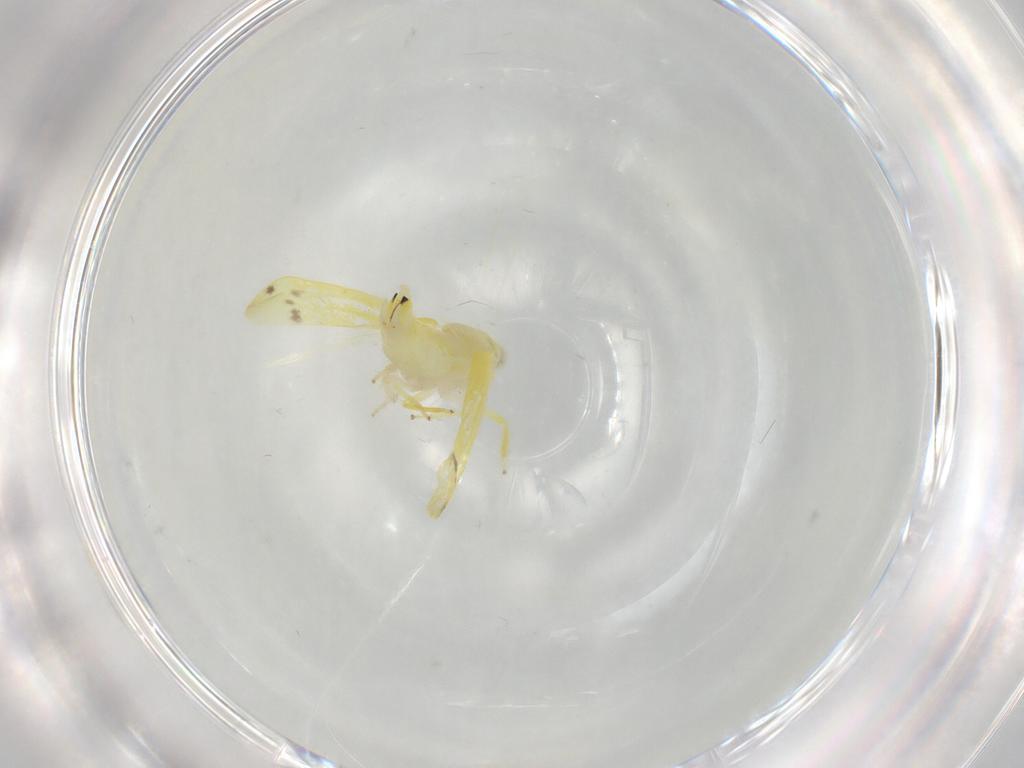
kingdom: Animalia
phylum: Arthropoda
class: Insecta
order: Hemiptera
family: Cicadellidae
